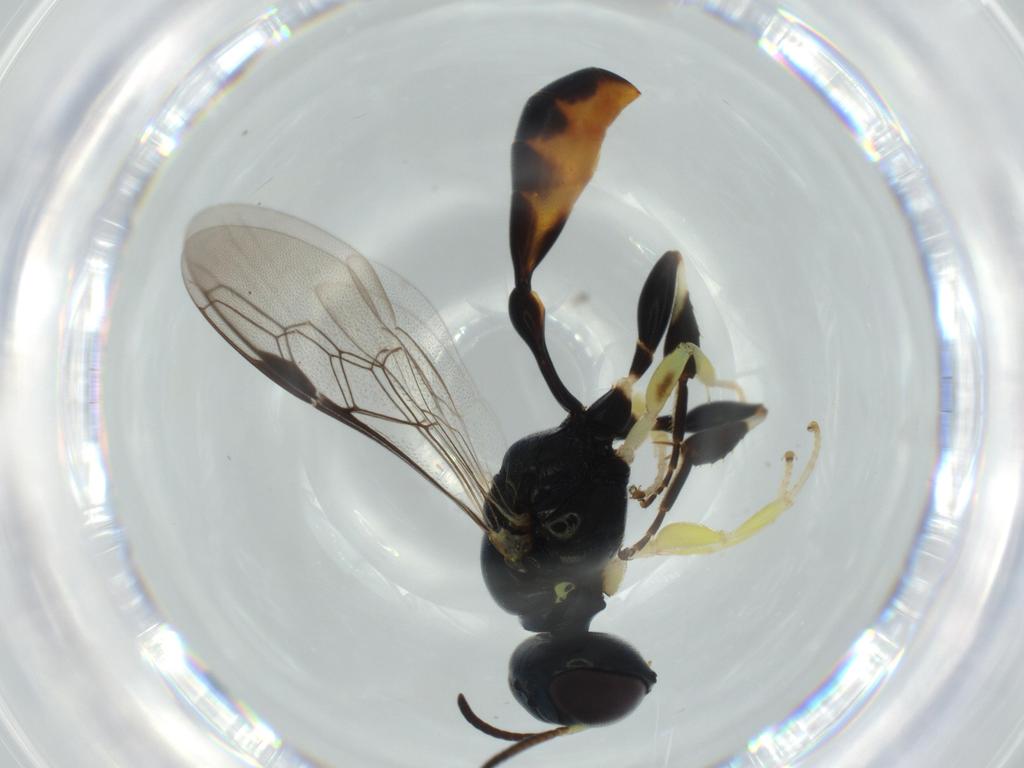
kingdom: Animalia
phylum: Arthropoda
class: Insecta
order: Hymenoptera
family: Crabronidae
